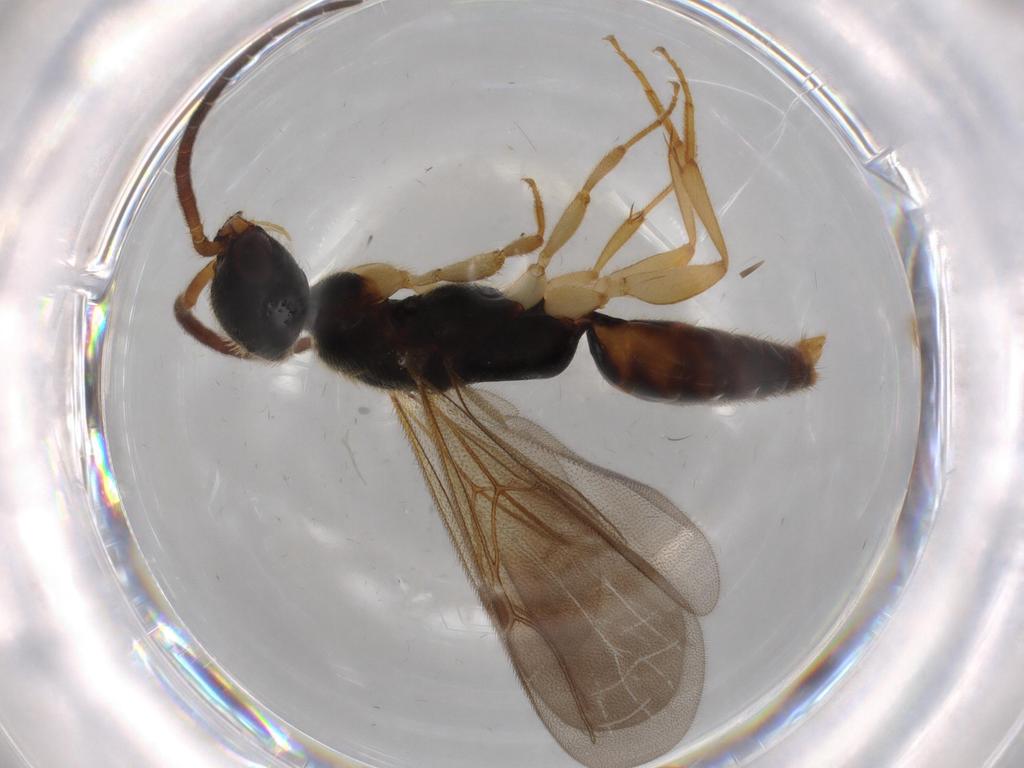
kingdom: Animalia
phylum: Arthropoda
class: Insecta
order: Hymenoptera
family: Bethylidae
